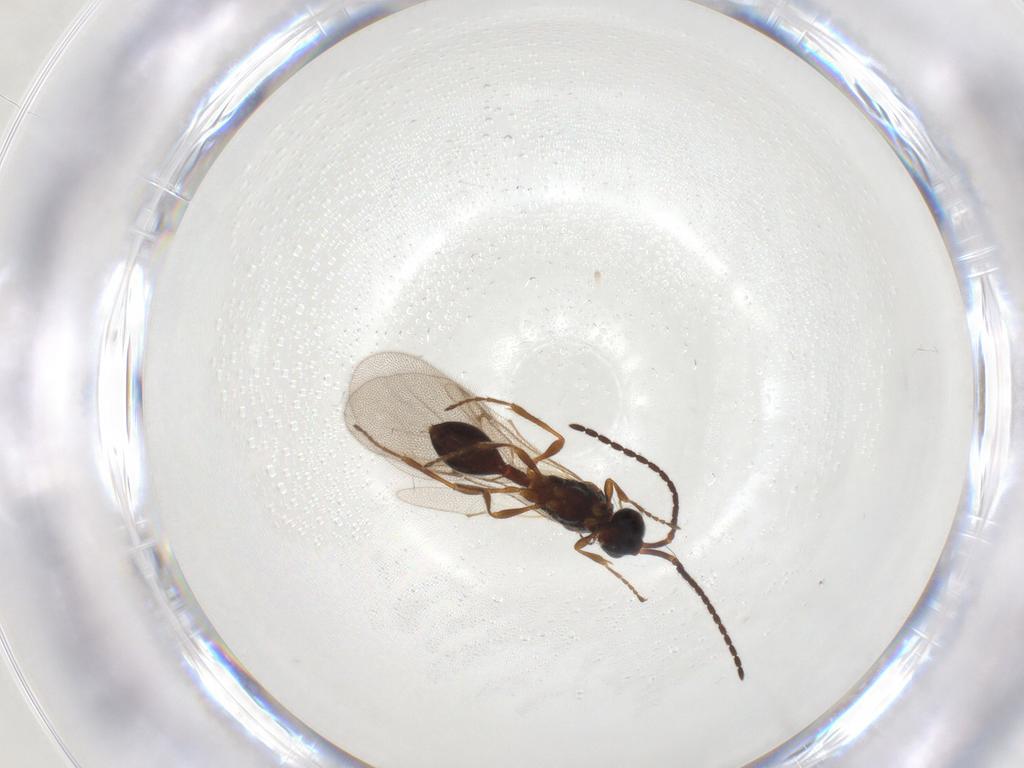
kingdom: Animalia
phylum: Arthropoda
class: Insecta
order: Hymenoptera
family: Diapriidae
